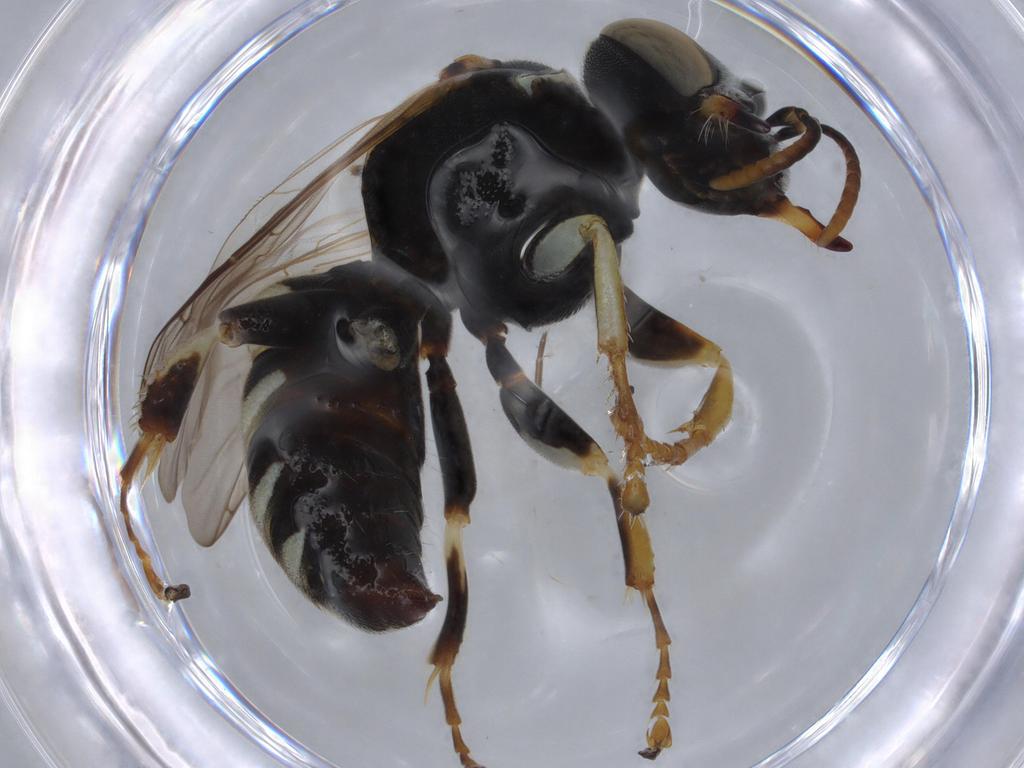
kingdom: Animalia
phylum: Arthropoda
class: Insecta
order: Hymenoptera
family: Crabronidae
